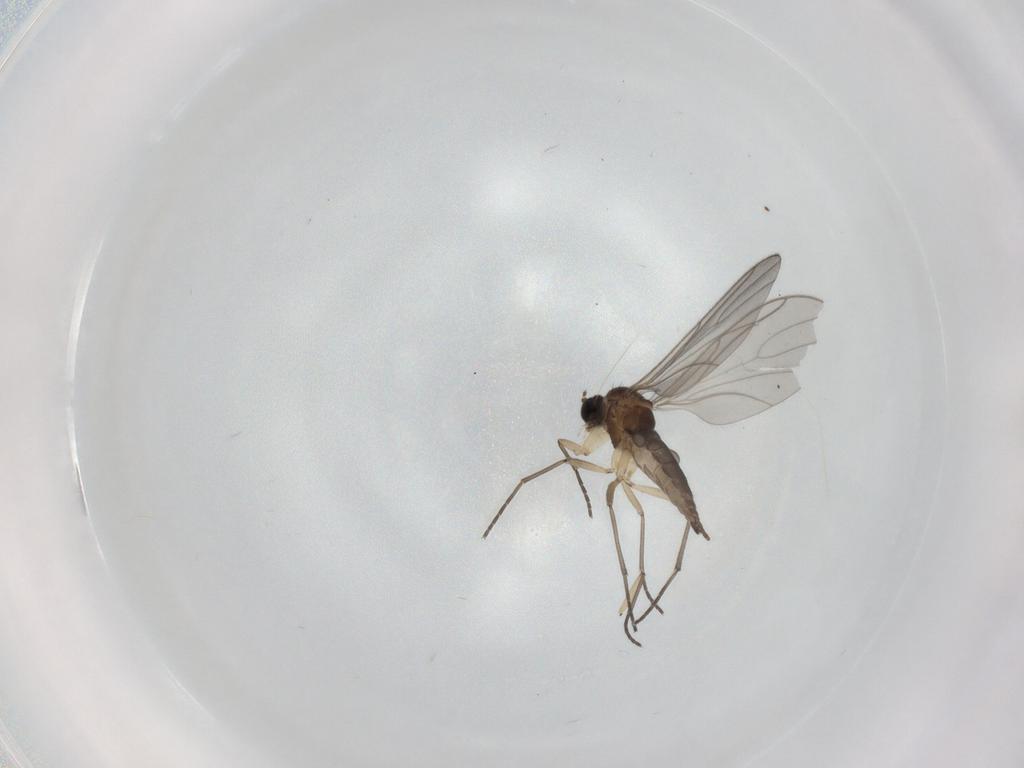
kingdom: Animalia
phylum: Arthropoda
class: Insecta
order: Diptera
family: Sciaridae
